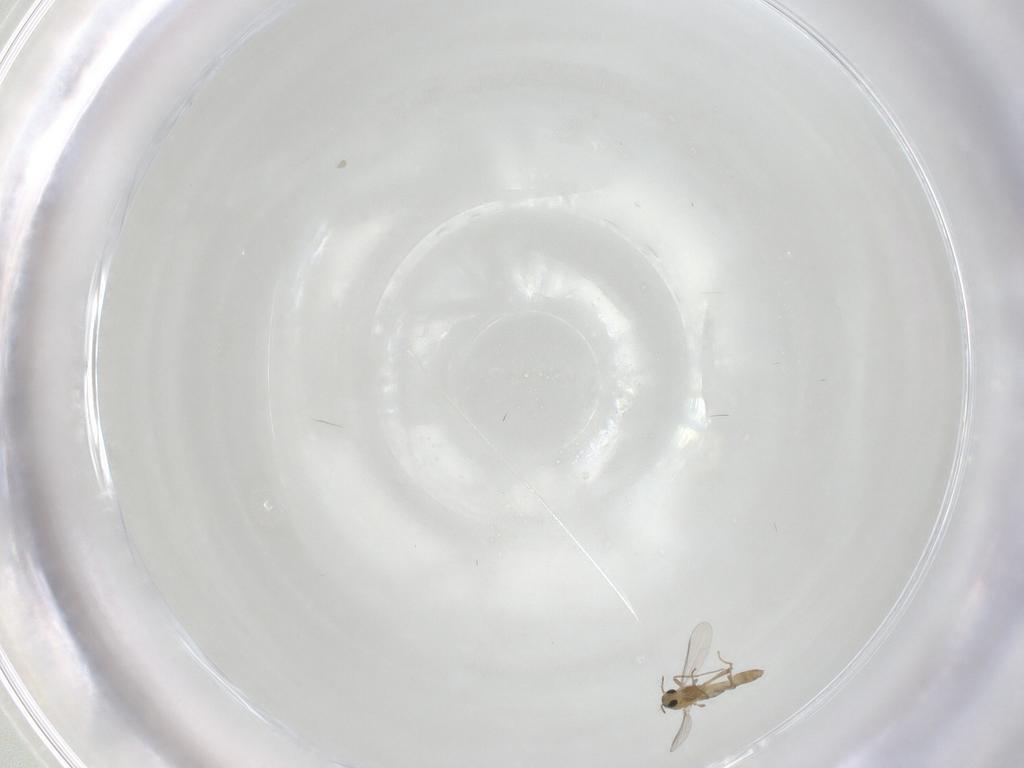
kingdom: Animalia
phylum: Arthropoda
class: Insecta
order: Diptera
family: Chironomidae
